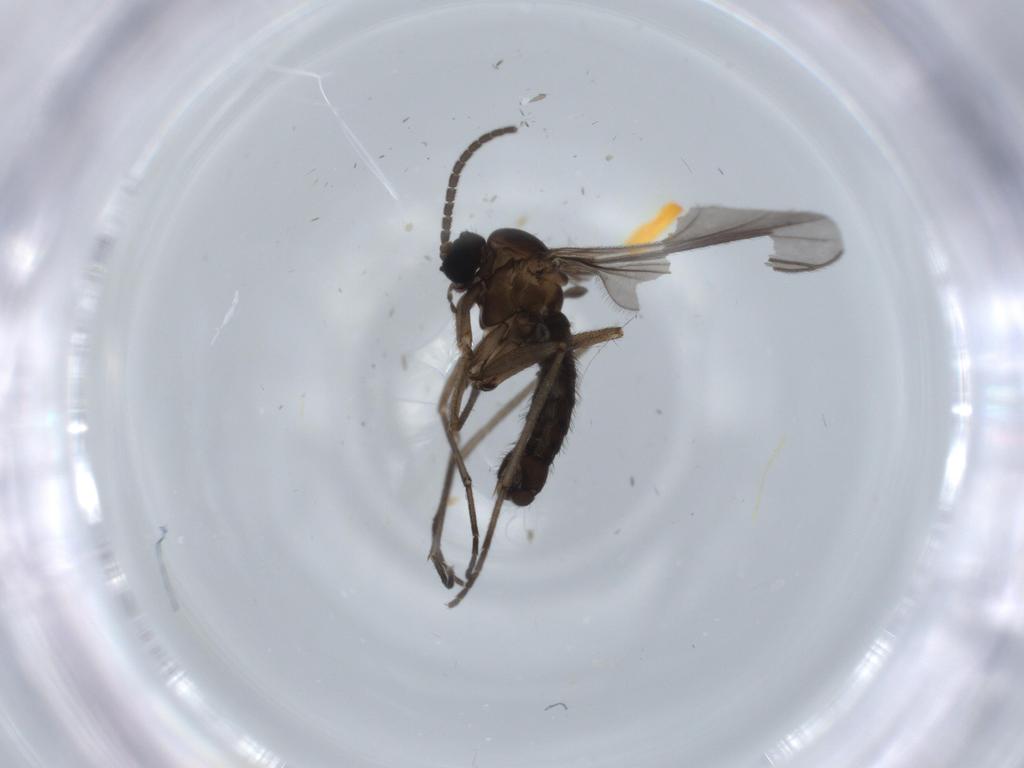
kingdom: Animalia
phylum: Arthropoda
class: Insecta
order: Diptera
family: Sciaridae
